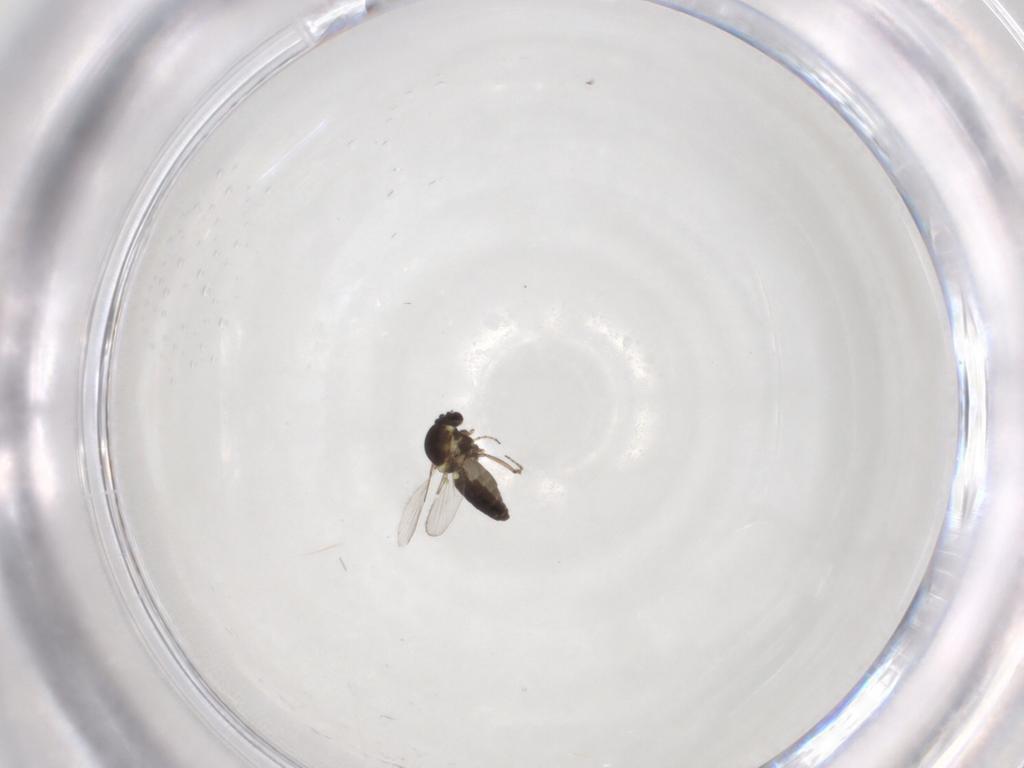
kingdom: Animalia
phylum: Arthropoda
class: Insecta
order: Diptera
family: Ceratopogonidae
